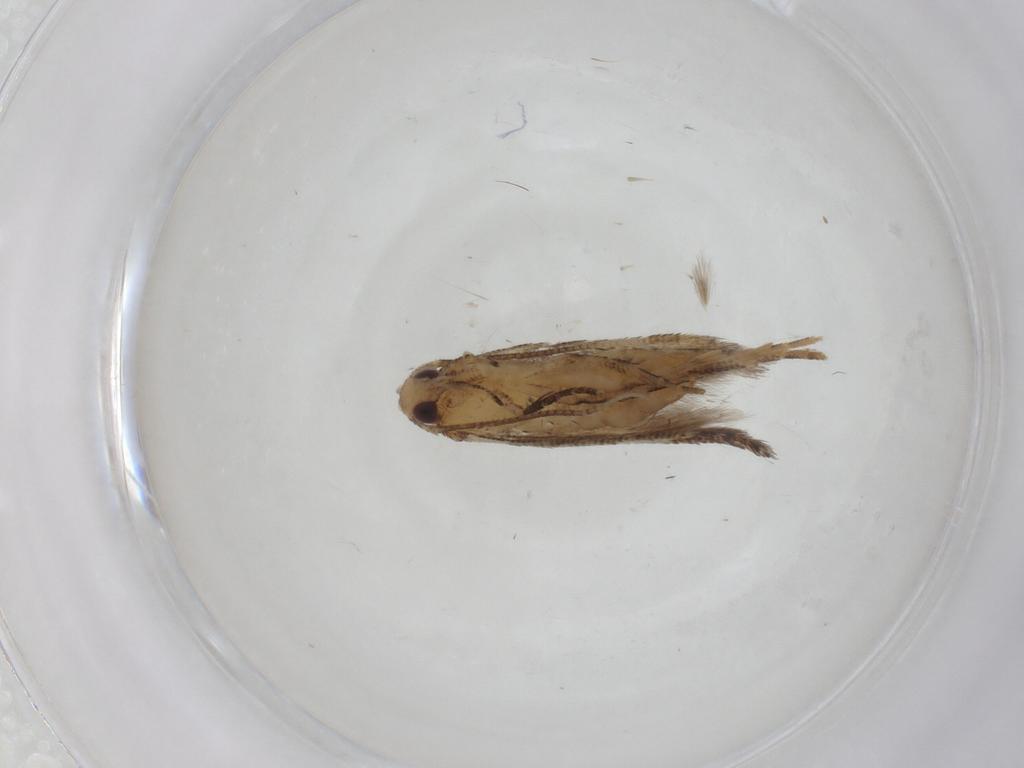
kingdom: Animalia
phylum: Arthropoda
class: Insecta
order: Lepidoptera
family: Cosmopterigidae
